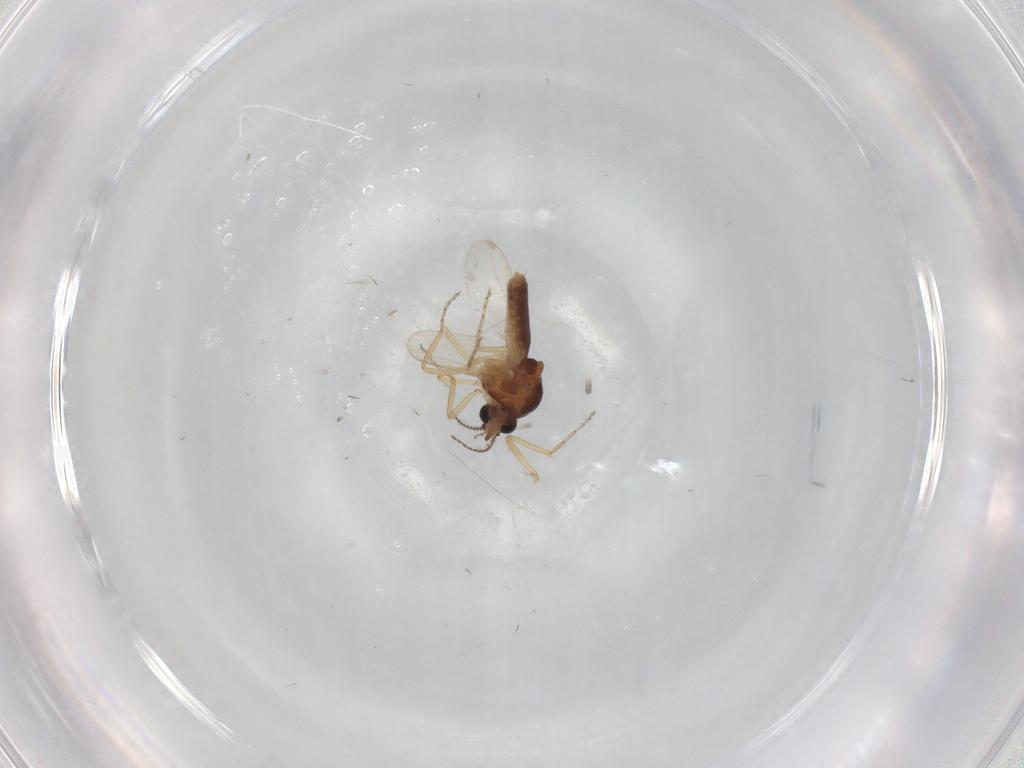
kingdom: Animalia
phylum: Arthropoda
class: Insecta
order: Diptera
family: Ceratopogonidae
